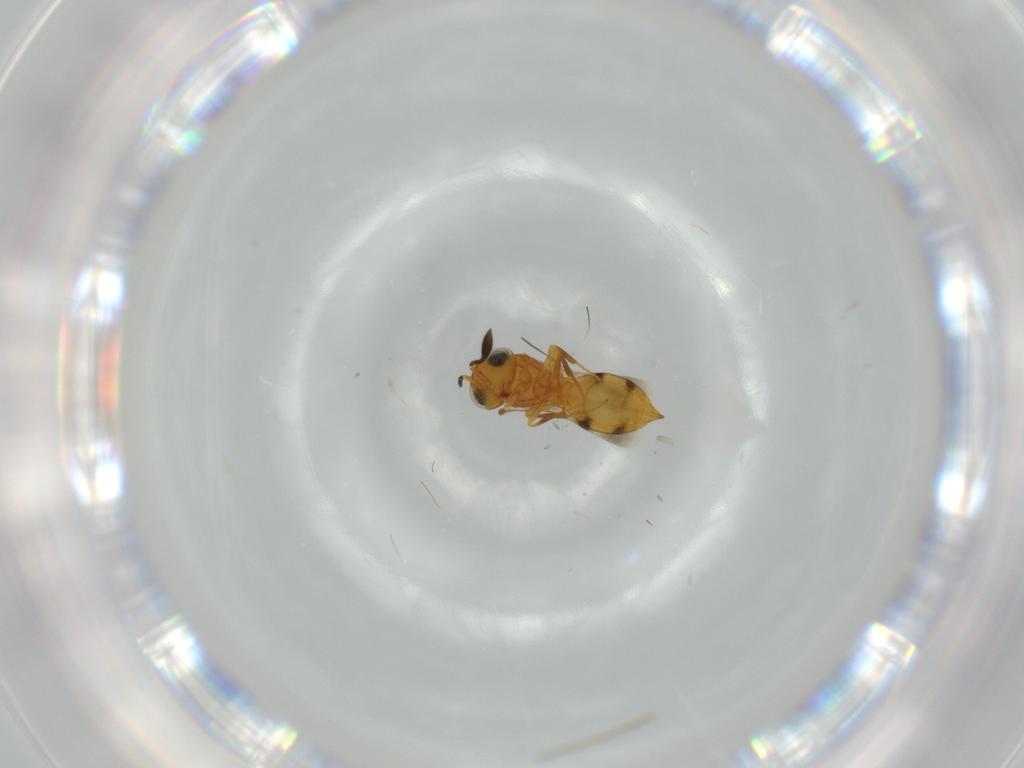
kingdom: Animalia
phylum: Arthropoda
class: Insecta
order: Hymenoptera
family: Scelionidae
